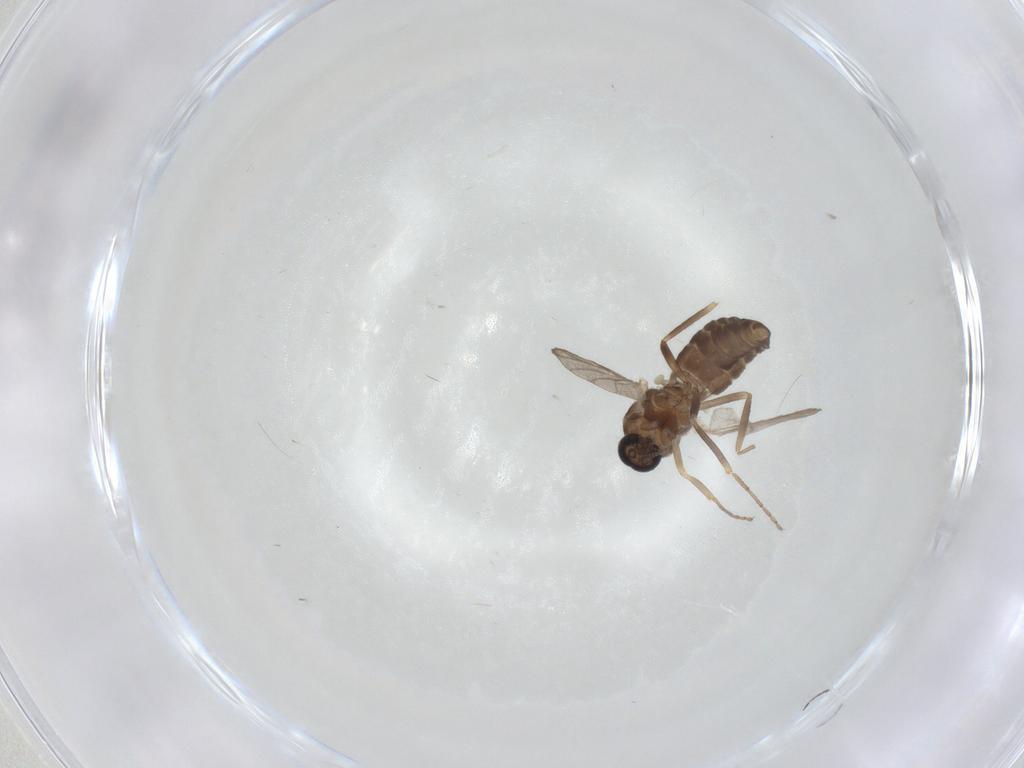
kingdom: Animalia
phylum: Arthropoda
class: Insecta
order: Diptera
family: Ceratopogonidae
